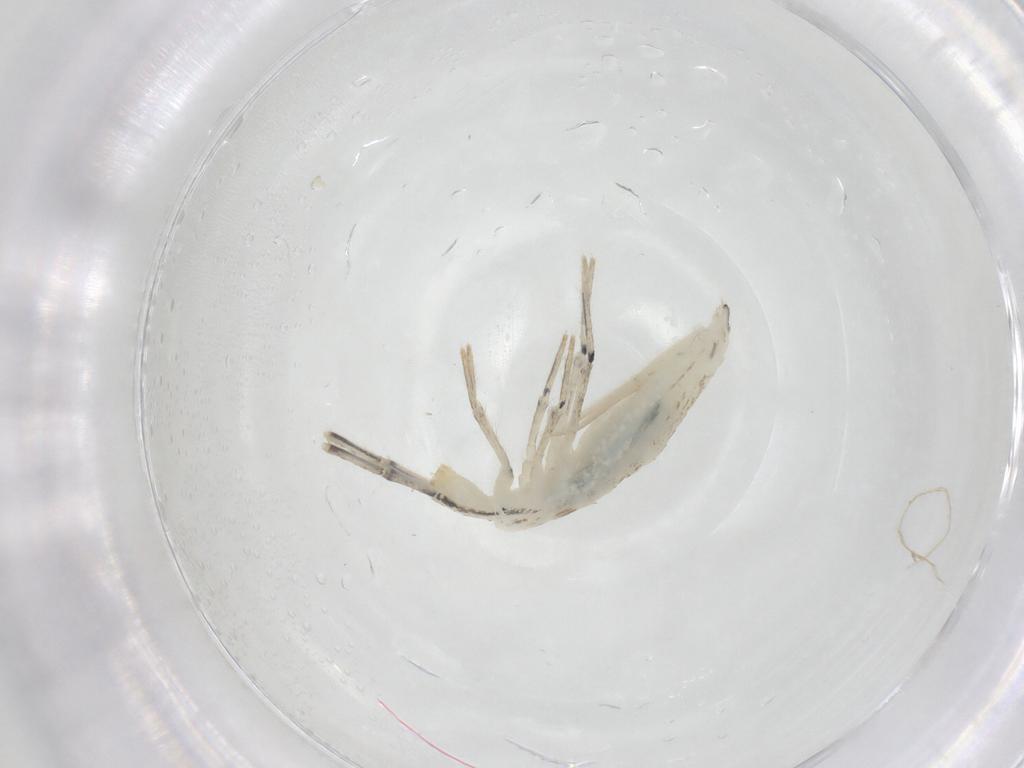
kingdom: Animalia
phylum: Arthropoda
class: Collembola
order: Entomobryomorpha
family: Entomobryidae
